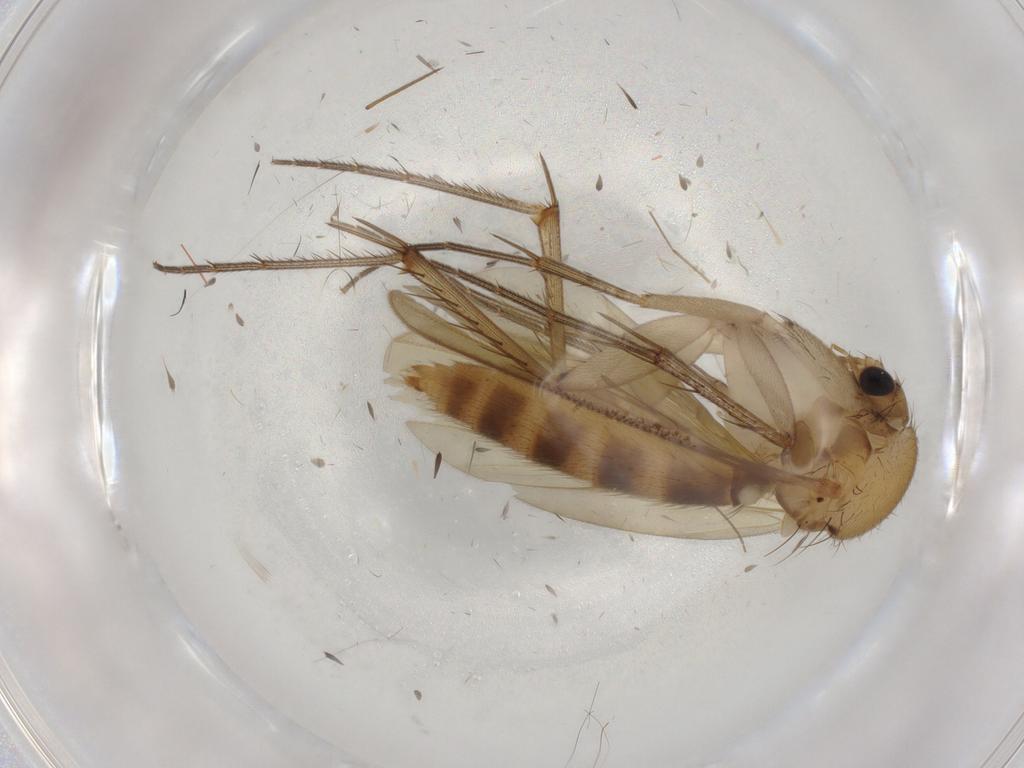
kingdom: Animalia
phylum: Arthropoda
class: Insecta
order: Diptera
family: Mycetophilidae
